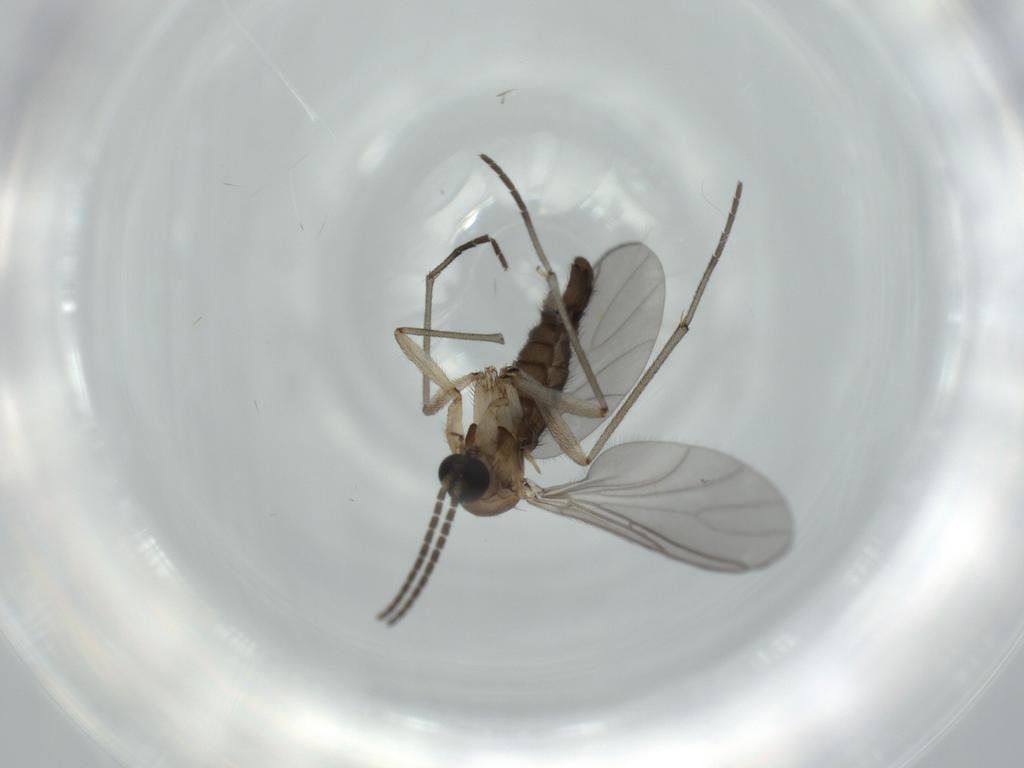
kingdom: Animalia
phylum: Arthropoda
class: Insecta
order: Diptera
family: Sciaridae
